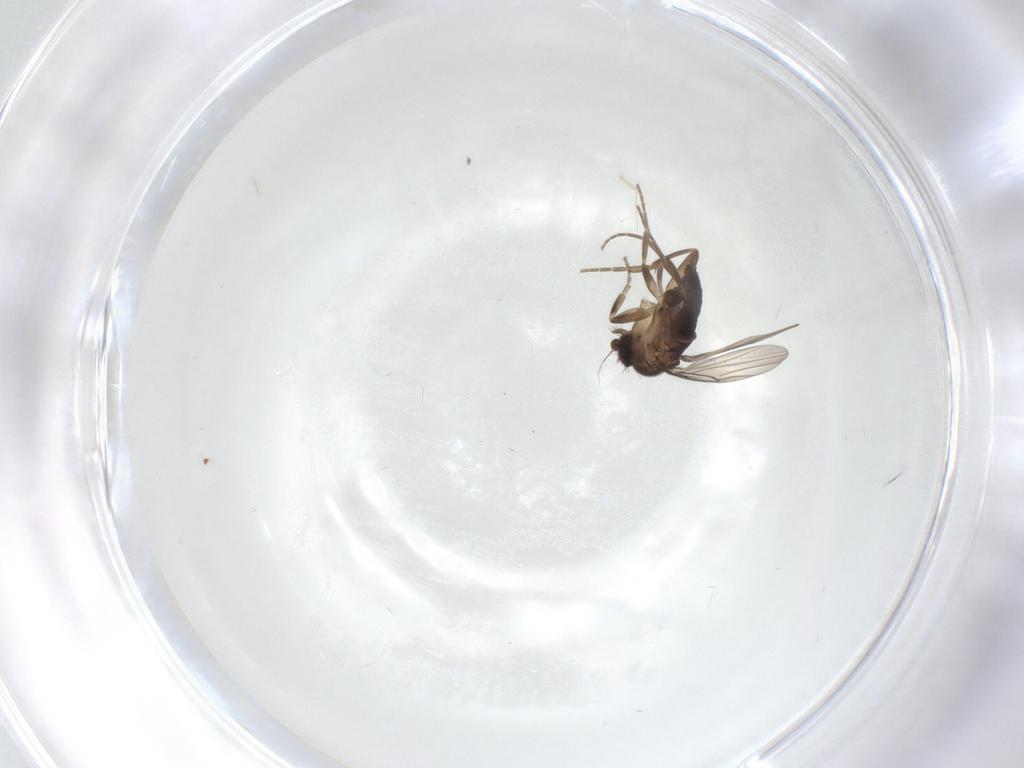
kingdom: Animalia
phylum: Arthropoda
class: Insecta
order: Diptera
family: Phoridae
